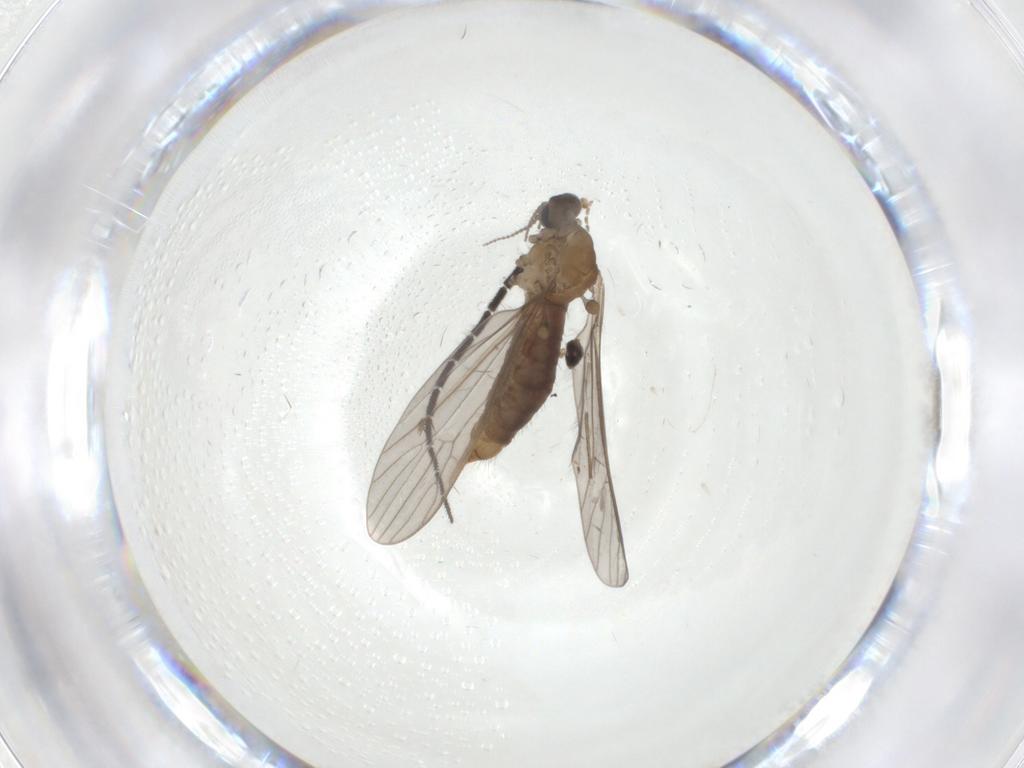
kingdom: Animalia
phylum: Arthropoda
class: Insecta
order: Diptera
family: Limoniidae
